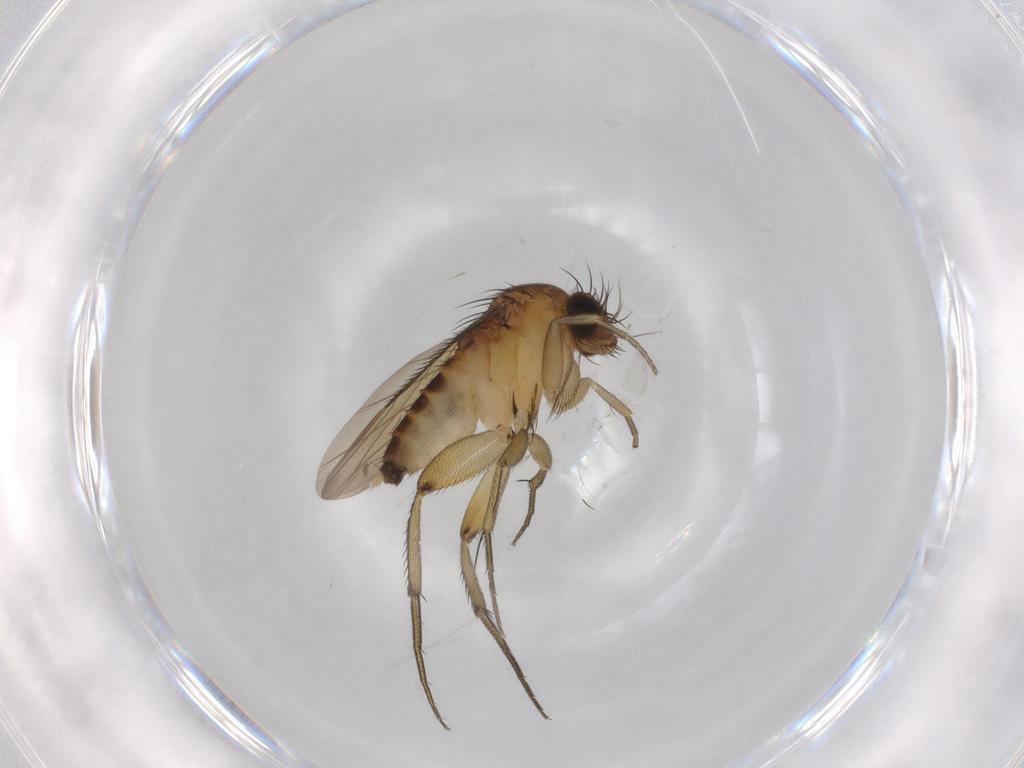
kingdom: Animalia
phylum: Arthropoda
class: Insecta
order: Diptera
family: Phoridae
